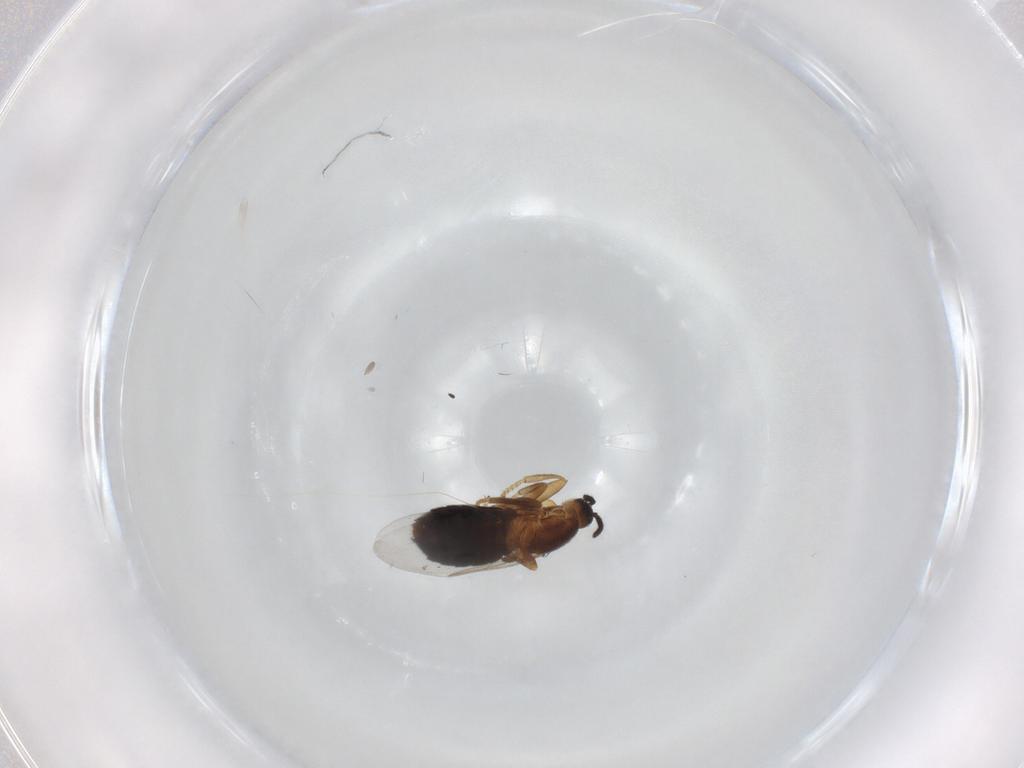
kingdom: Animalia
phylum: Arthropoda
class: Insecta
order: Diptera
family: Scatopsidae
